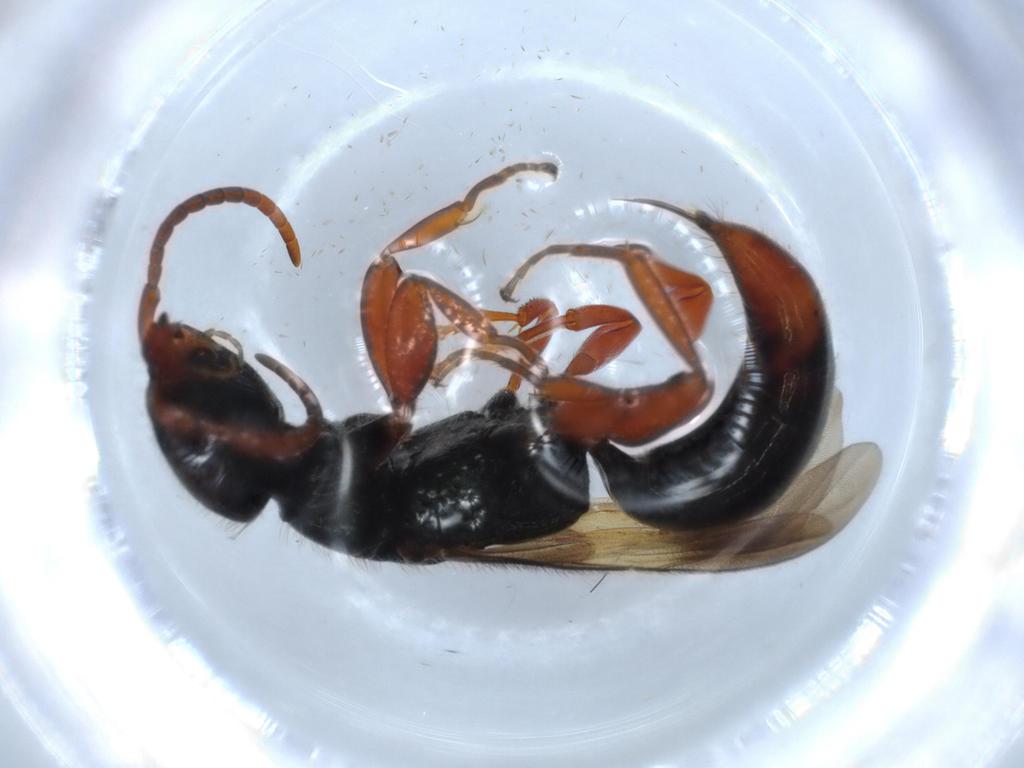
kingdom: Animalia
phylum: Arthropoda
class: Insecta
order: Hymenoptera
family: Bethylidae
